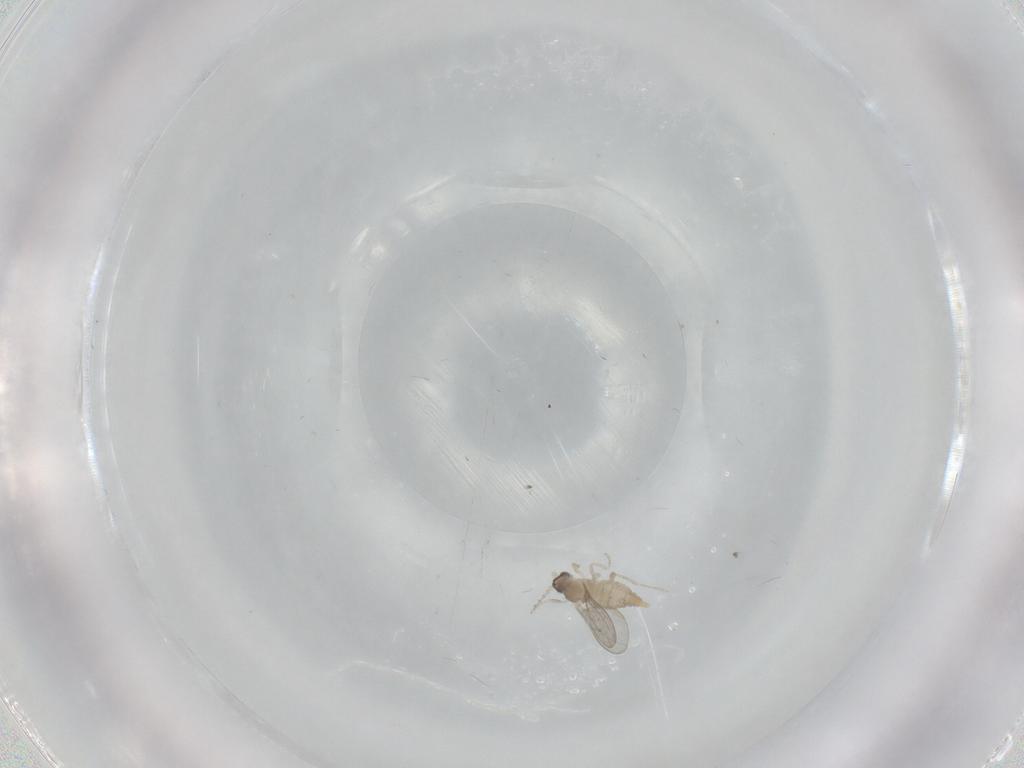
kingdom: Animalia
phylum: Arthropoda
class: Insecta
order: Diptera
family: Cecidomyiidae
